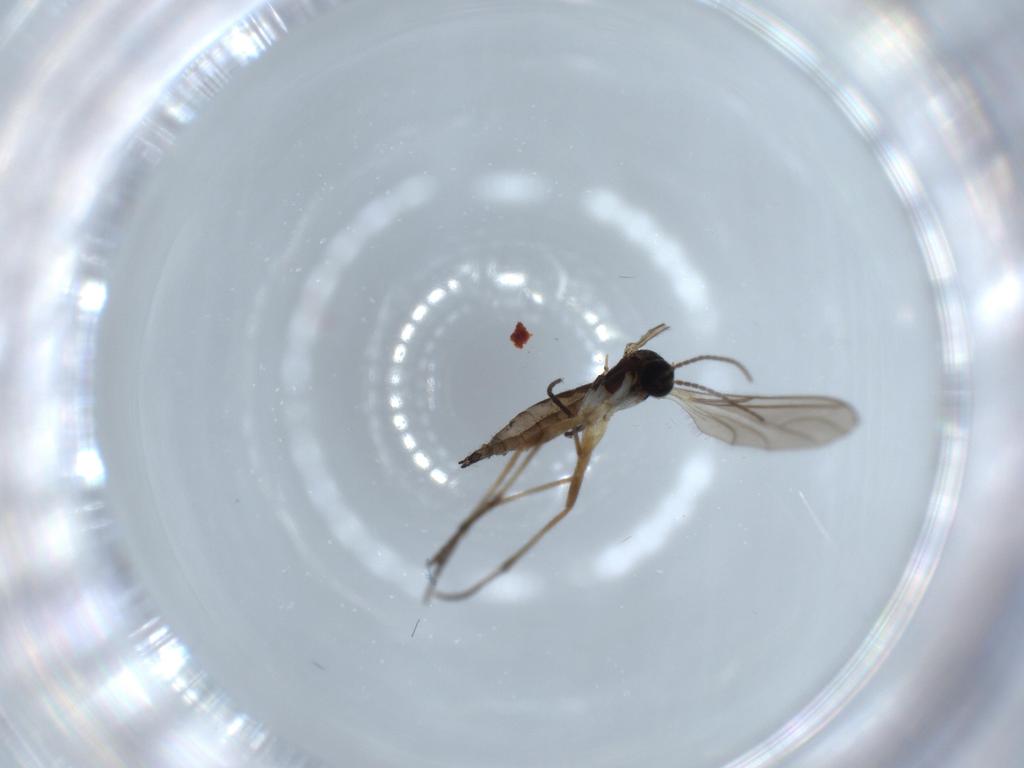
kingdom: Animalia
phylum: Arthropoda
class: Insecta
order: Diptera
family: Sciaridae
